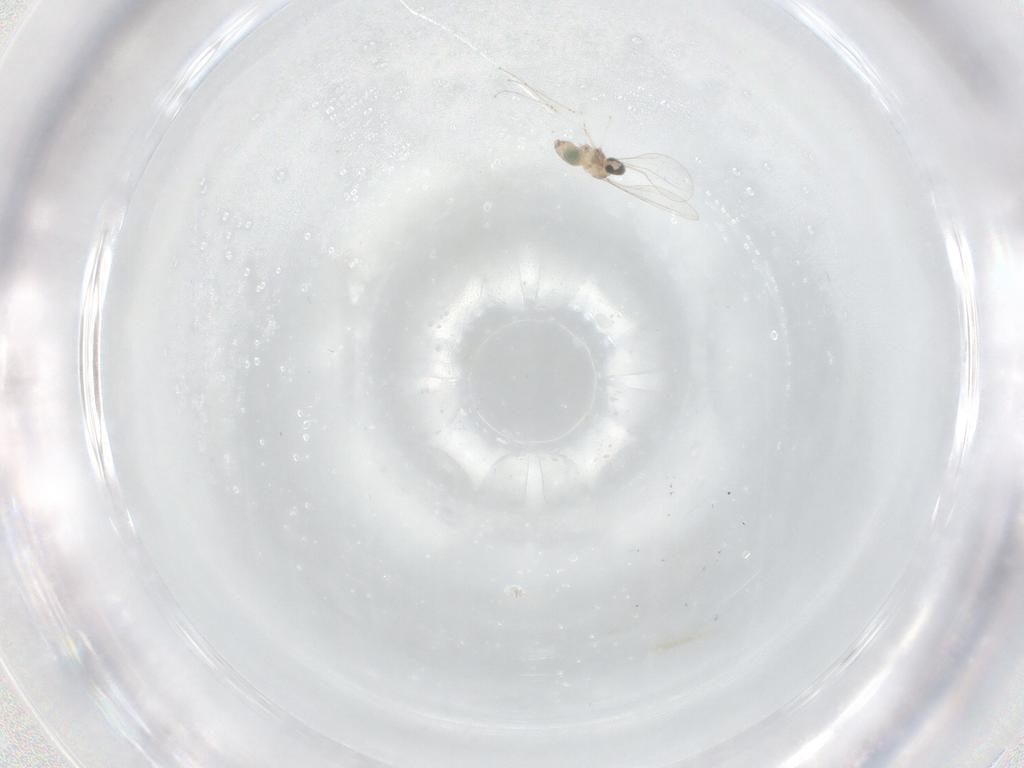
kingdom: Animalia
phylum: Arthropoda
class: Insecta
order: Diptera
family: Cecidomyiidae
